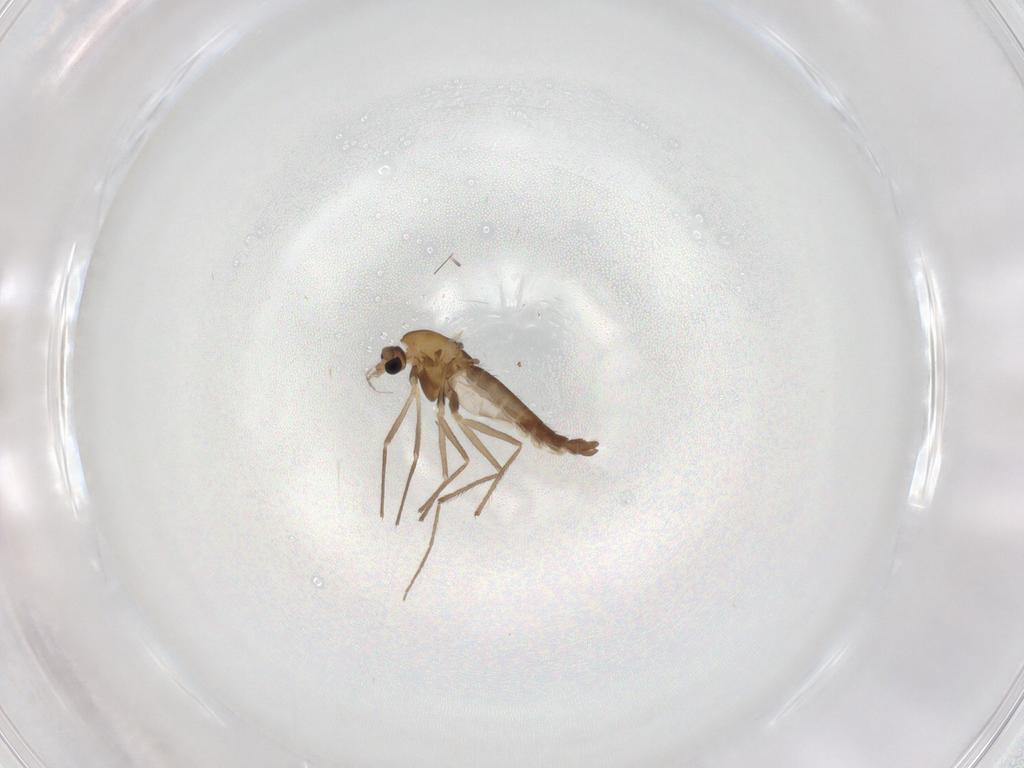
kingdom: Animalia
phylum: Arthropoda
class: Insecta
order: Diptera
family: Chironomidae
